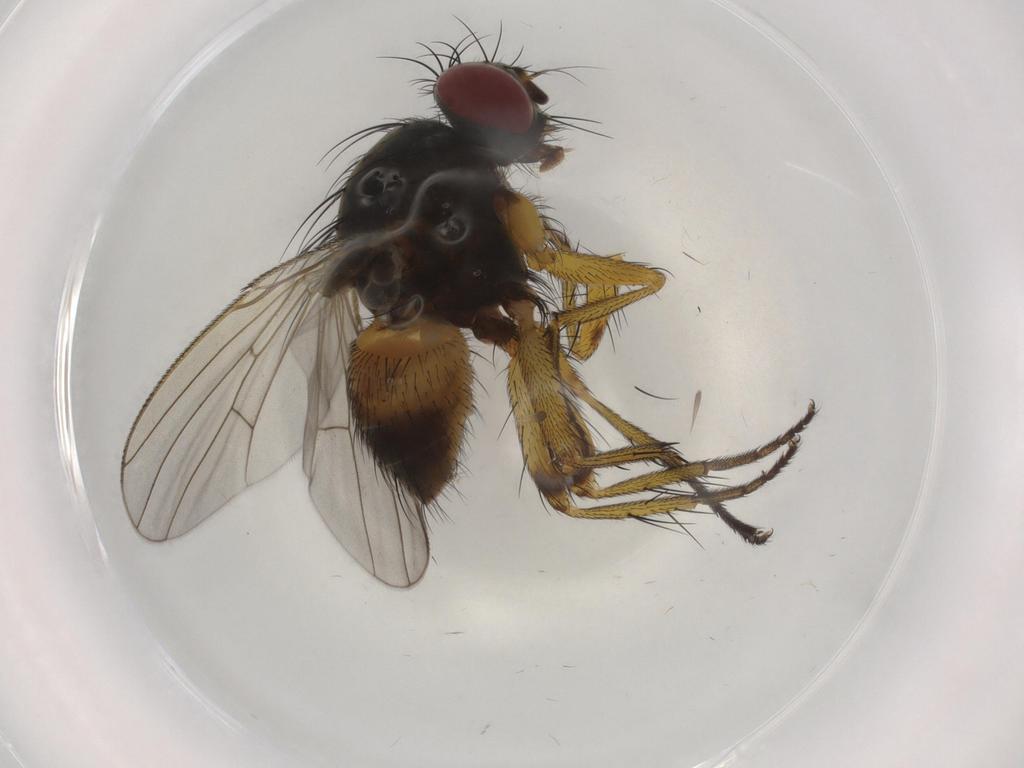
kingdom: Animalia
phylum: Arthropoda
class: Insecta
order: Diptera
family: Muscidae
